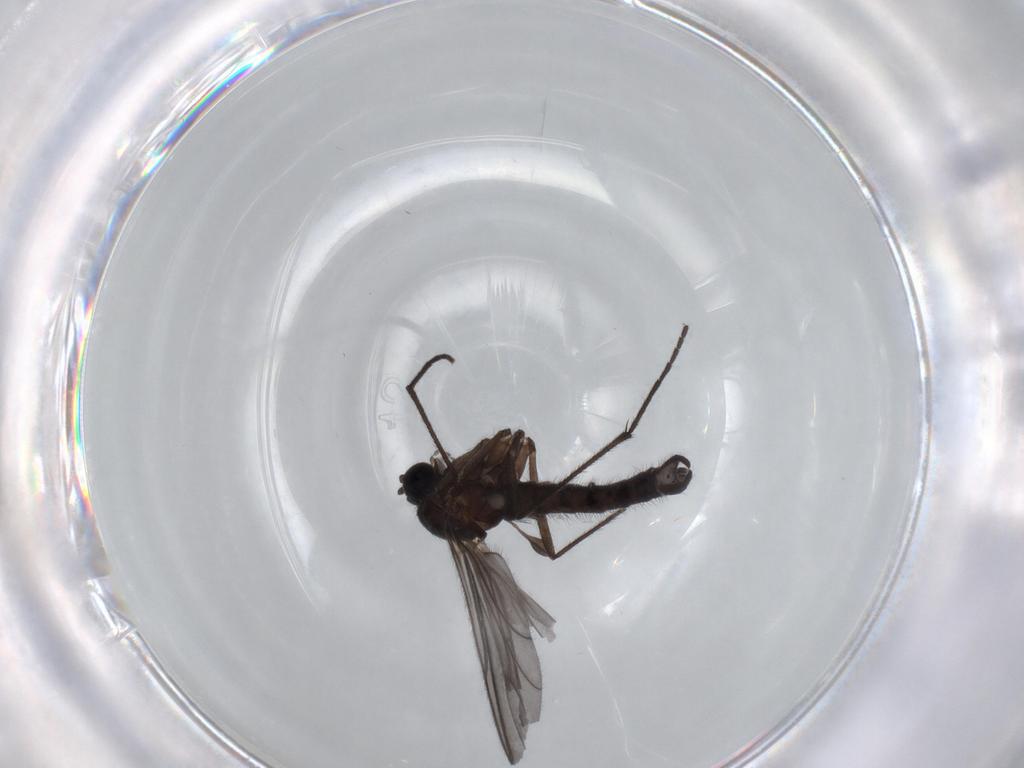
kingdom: Animalia
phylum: Arthropoda
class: Insecta
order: Diptera
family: Sciaridae
